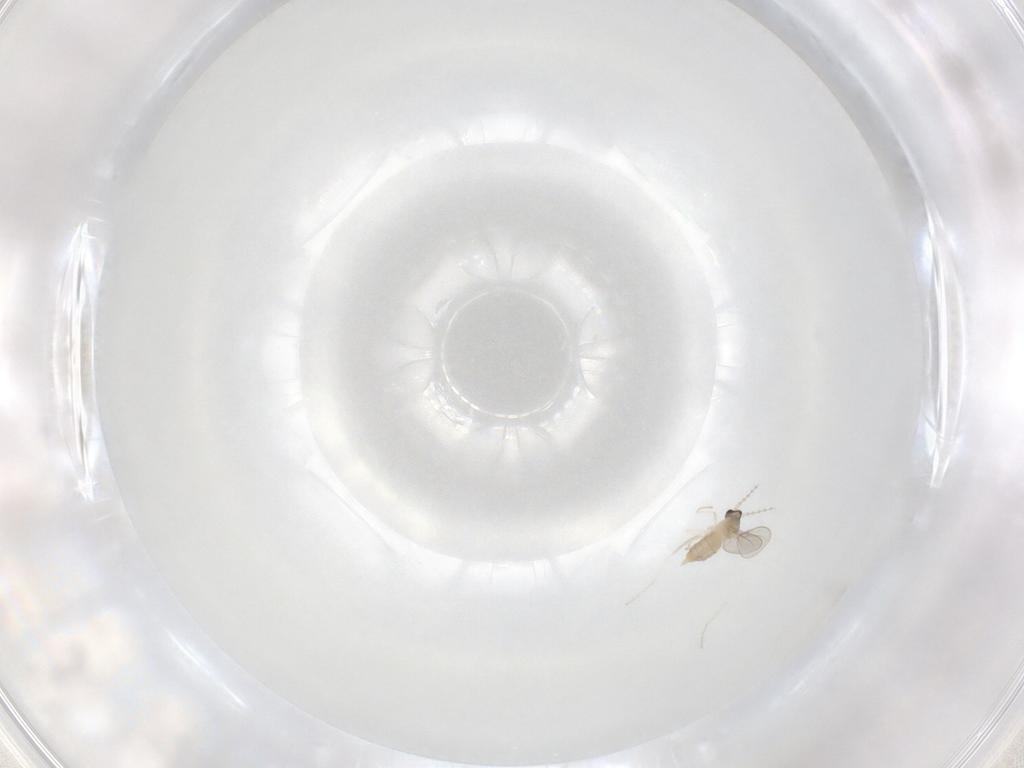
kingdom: Animalia
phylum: Arthropoda
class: Insecta
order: Diptera
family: Cecidomyiidae
